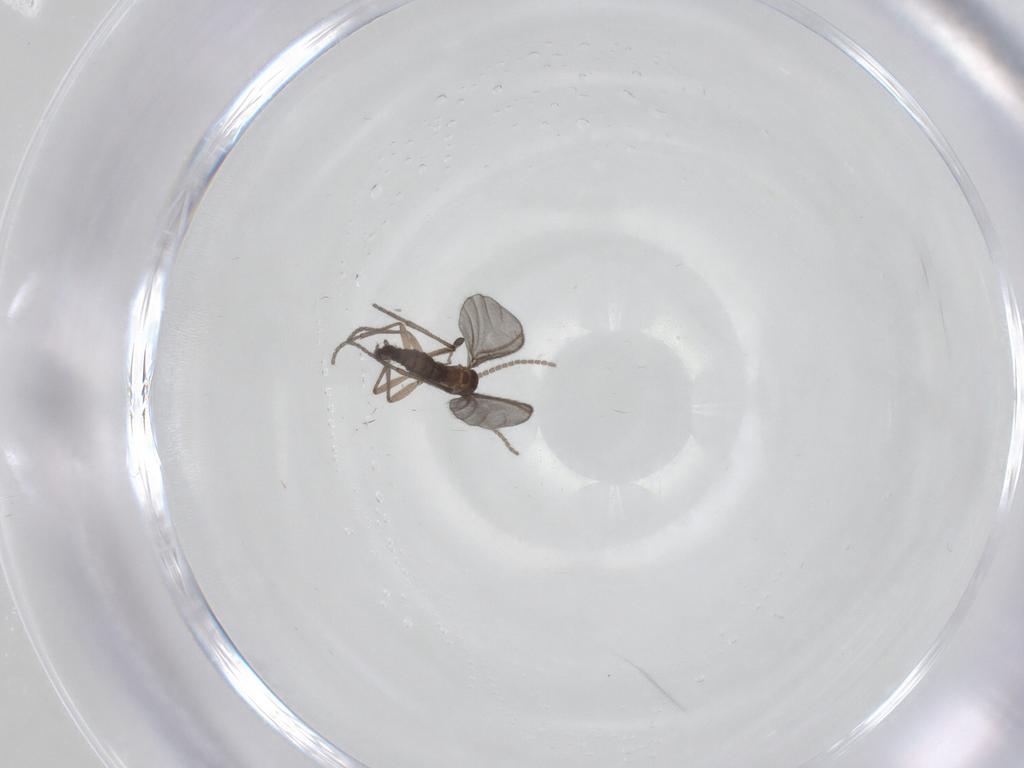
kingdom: Animalia
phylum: Arthropoda
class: Insecta
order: Diptera
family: Sciaridae
